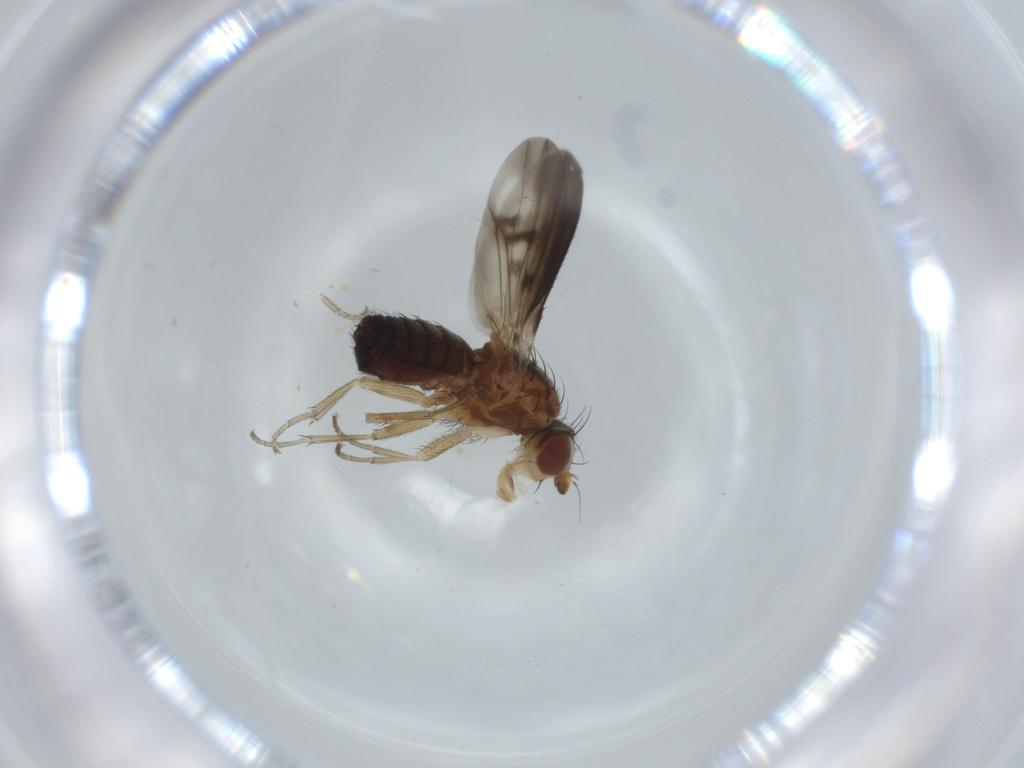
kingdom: Animalia
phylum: Arthropoda
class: Insecta
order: Diptera
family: Heleomyzidae
